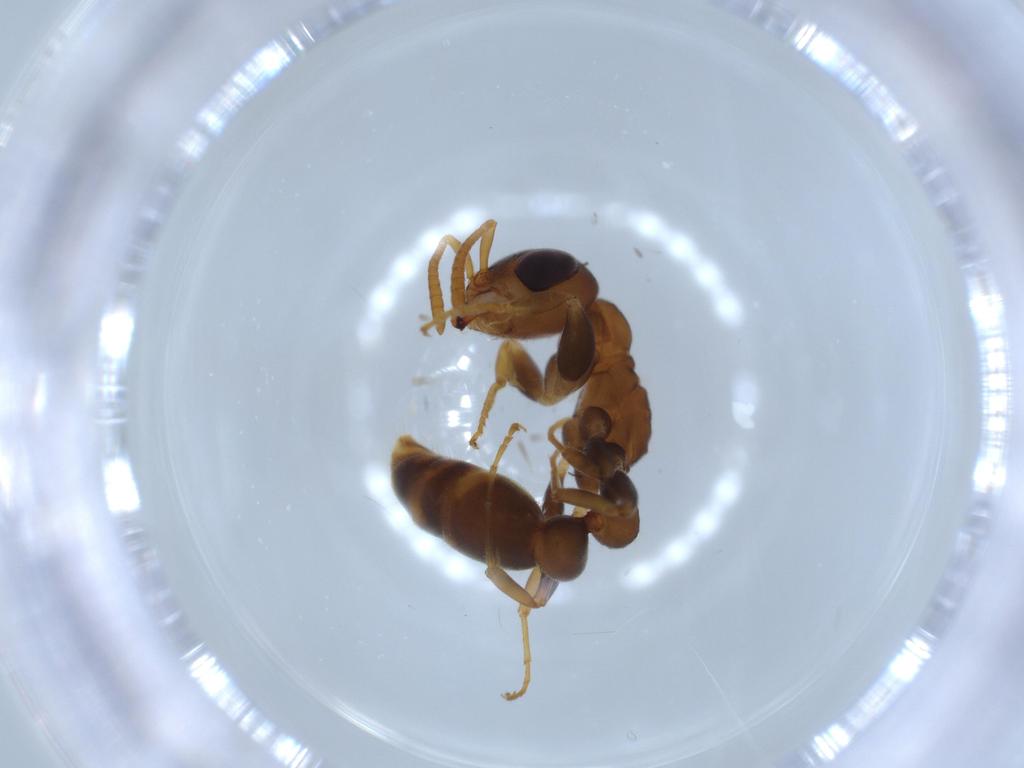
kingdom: Animalia
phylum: Arthropoda
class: Insecta
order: Hymenoptera
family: Formicidae
